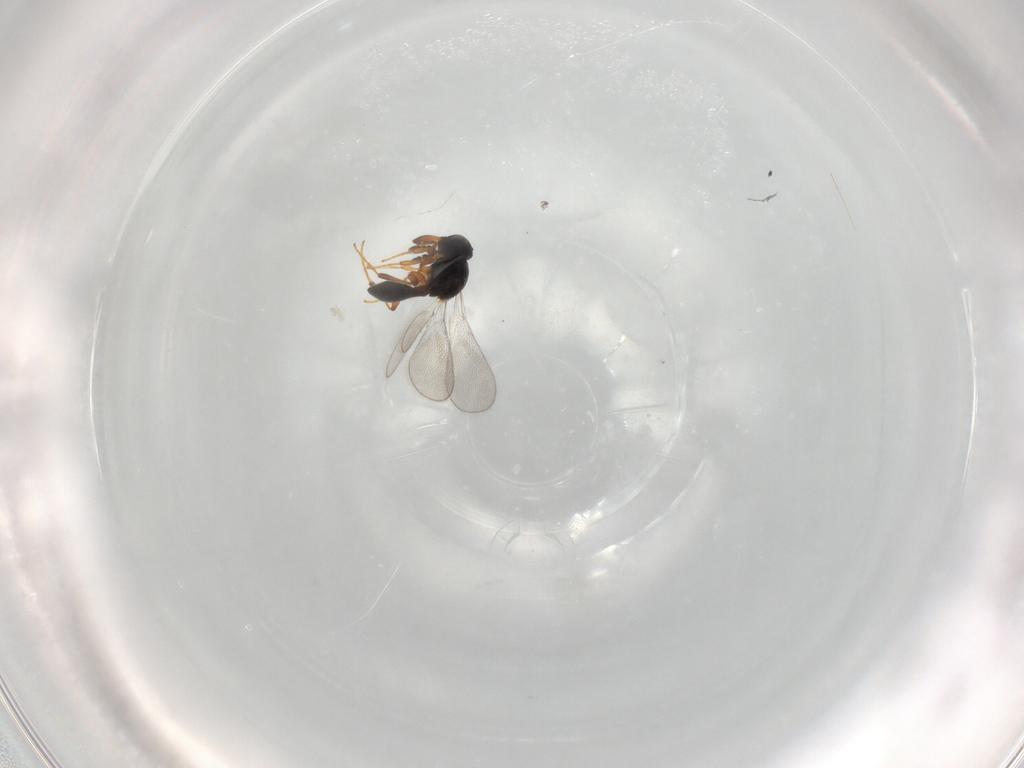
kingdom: Animalia
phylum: Arthropoda
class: Insecta
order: Hymenoptera
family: Platygastridae
